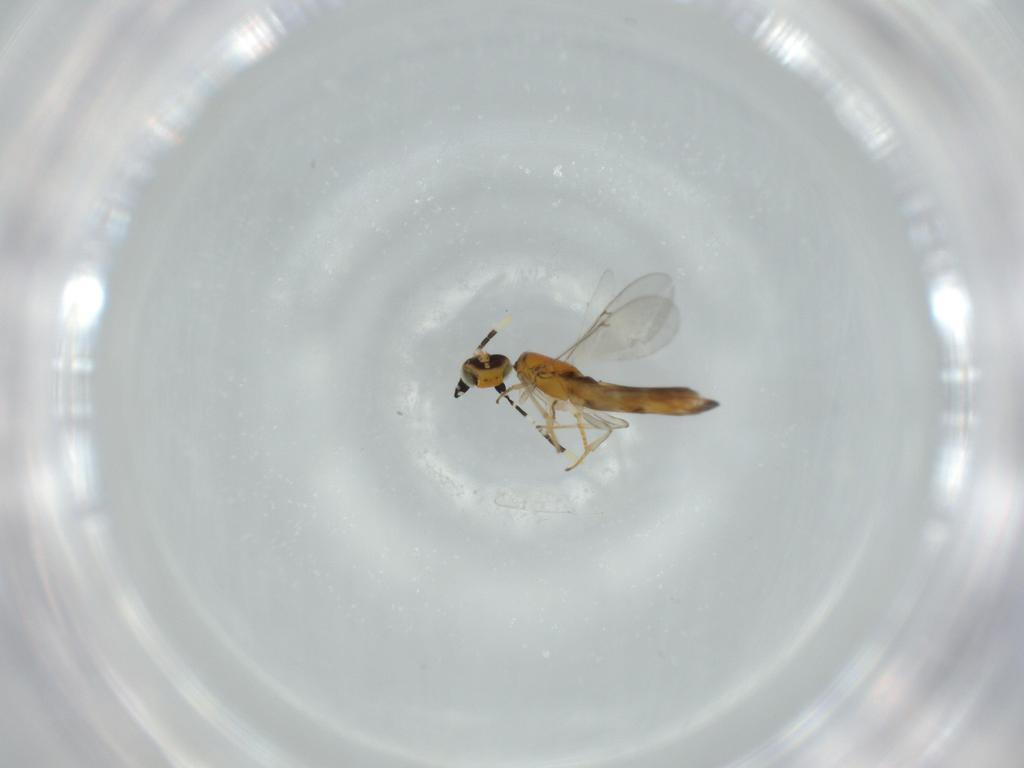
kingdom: Animalia
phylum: Arthropoda
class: Insecta
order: Hymenoptera
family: Encyrtidae
